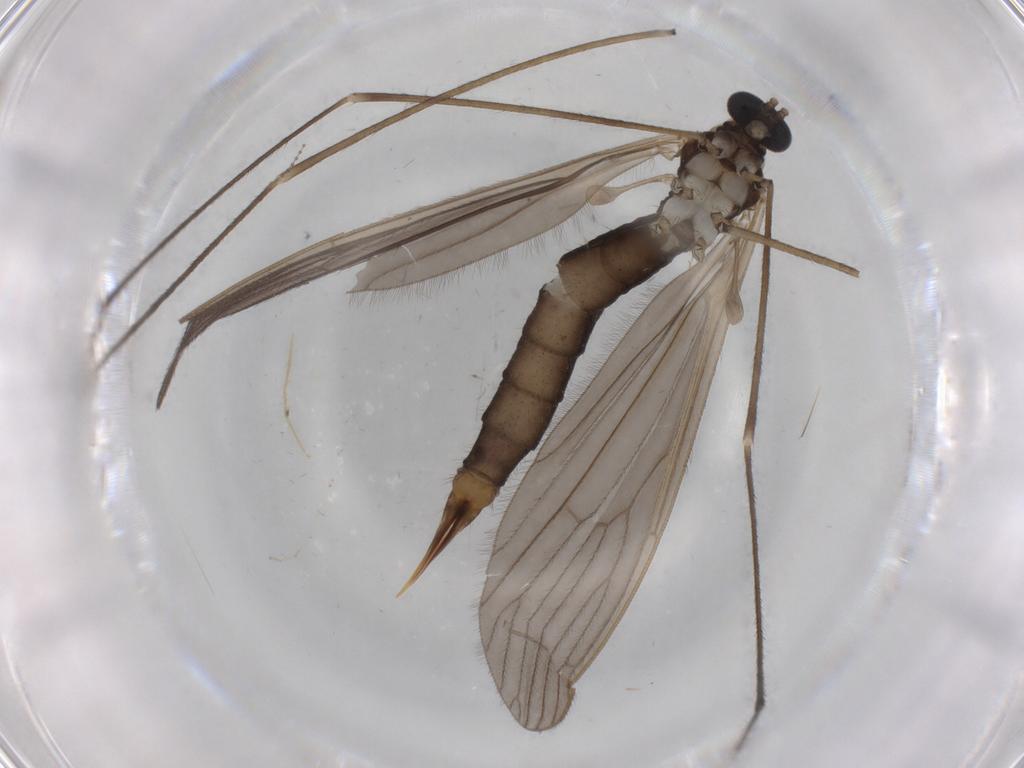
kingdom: Animalia
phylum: Arthropoda
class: Insecta
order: Diptera
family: Limoniidae
